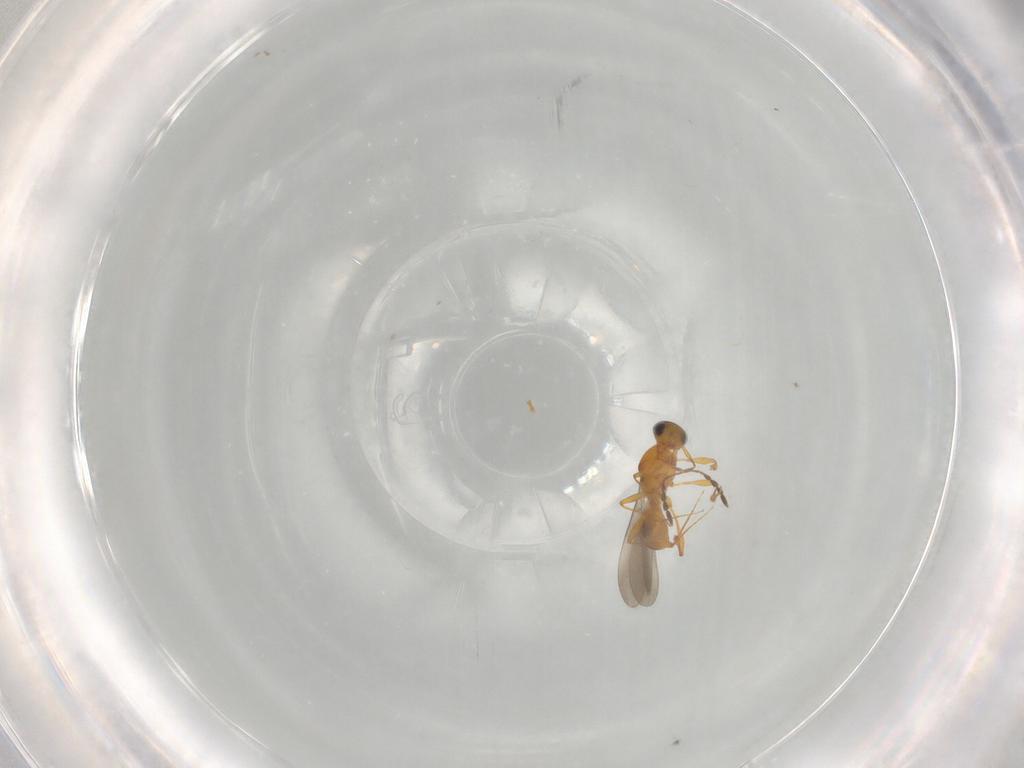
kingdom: Animalia
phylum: Arthropoda
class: Insecta
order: Hymenoptera
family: Platygastridae
